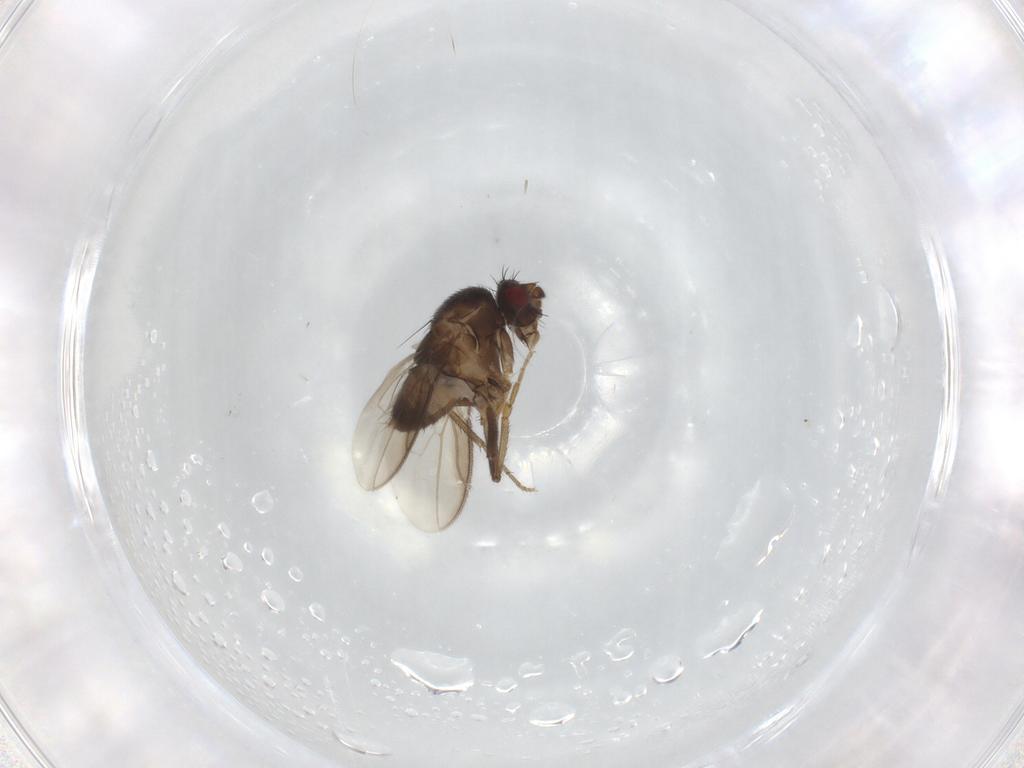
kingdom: Animalia
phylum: Arthropoda
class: Insecta
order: Diptera
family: Sphaeroceridae
